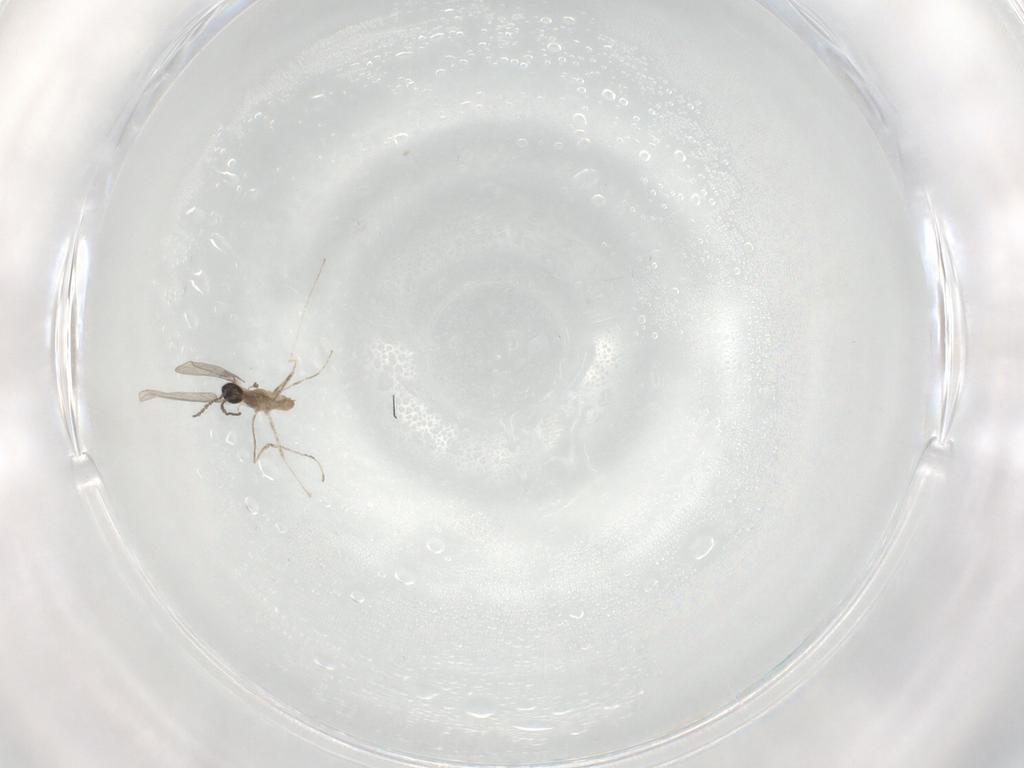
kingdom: Animalia
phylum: Arthropoda
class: Insecta
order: Diptera
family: Cecidomyiidae
